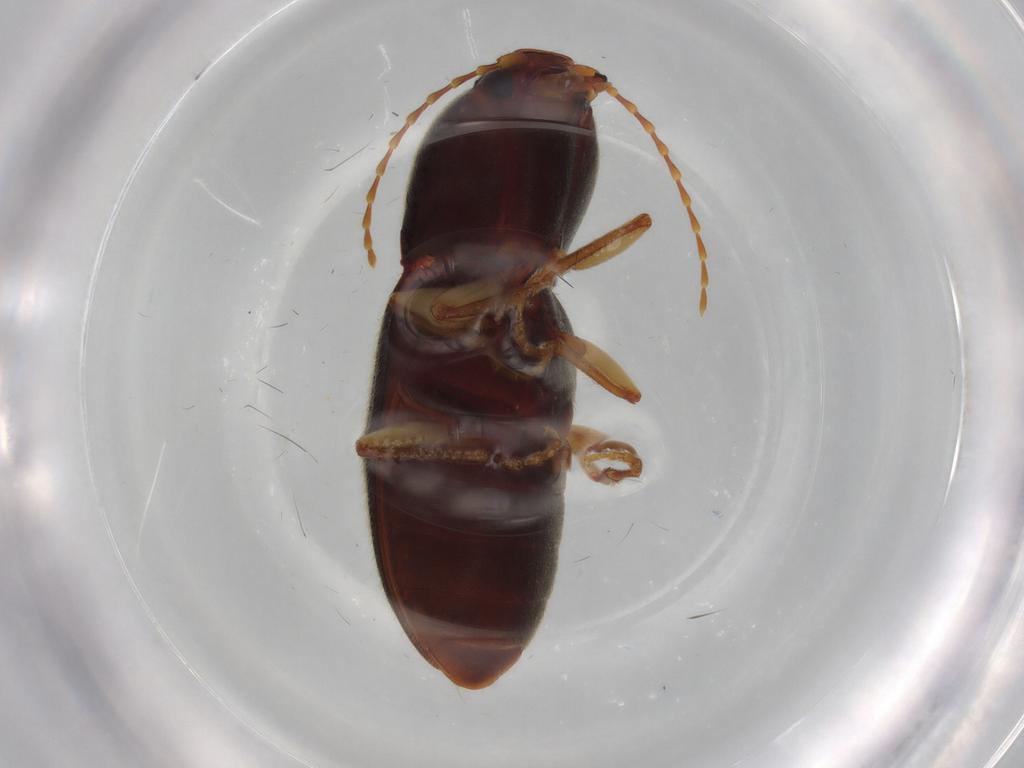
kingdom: Animalia
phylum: Arthropoda
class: Insecta
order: Coleoptera
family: Elateridae
